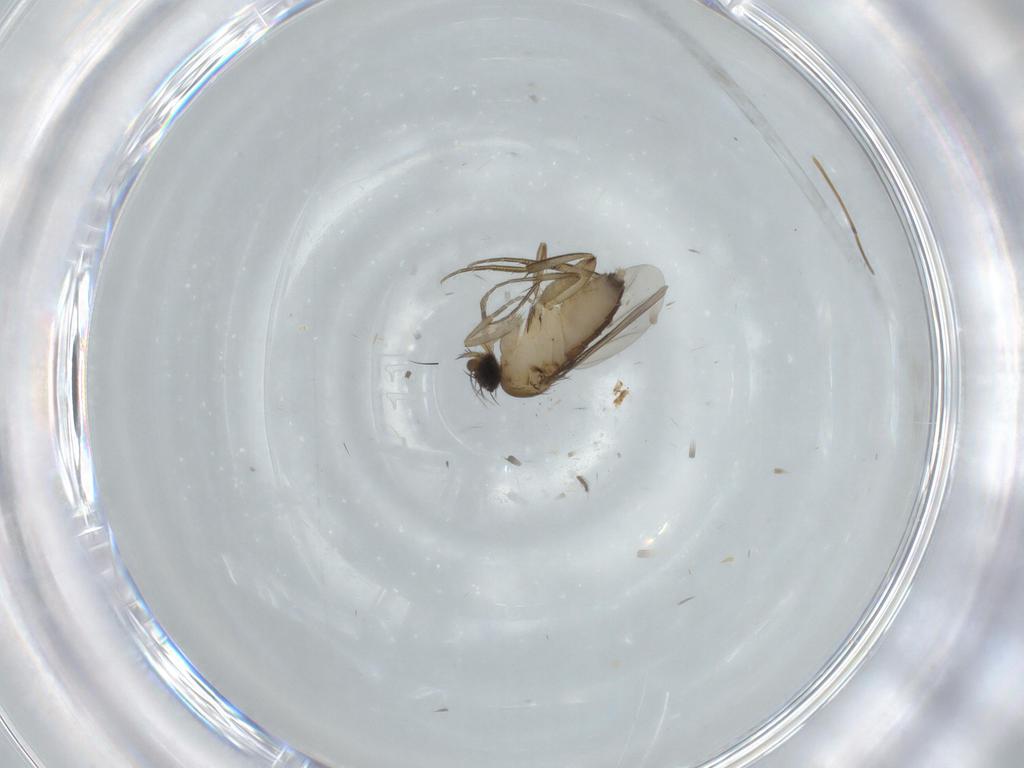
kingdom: Animalia
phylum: Arthropoda
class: Insecta
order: Diptera
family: Phoridae
